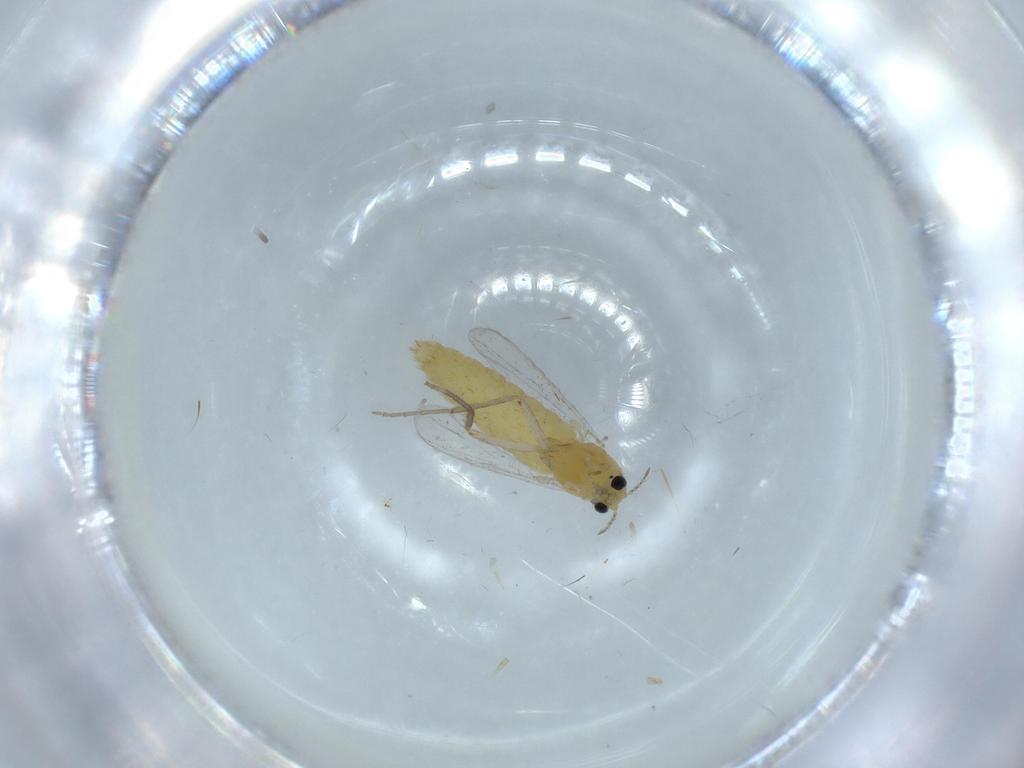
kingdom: Animalia
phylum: Arthropoda
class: Insecta
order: Diptera
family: Chironomidae
